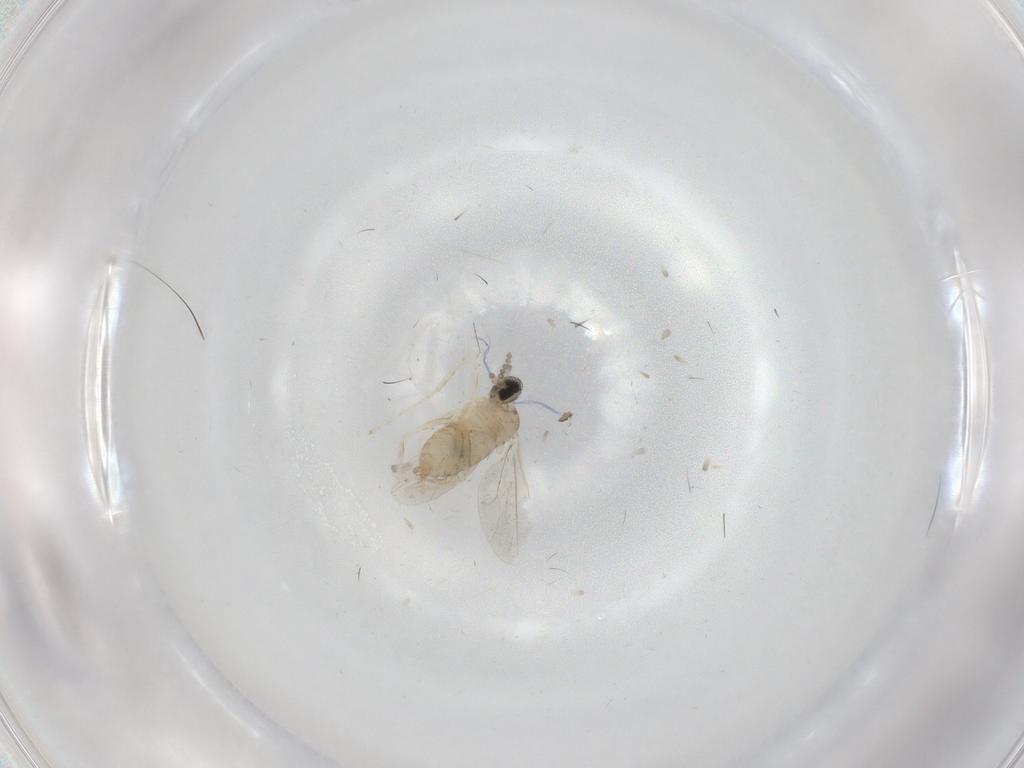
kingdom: Animalia
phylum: Arthropoda
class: Insecta
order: Diptera
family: Cecidomyiidae
